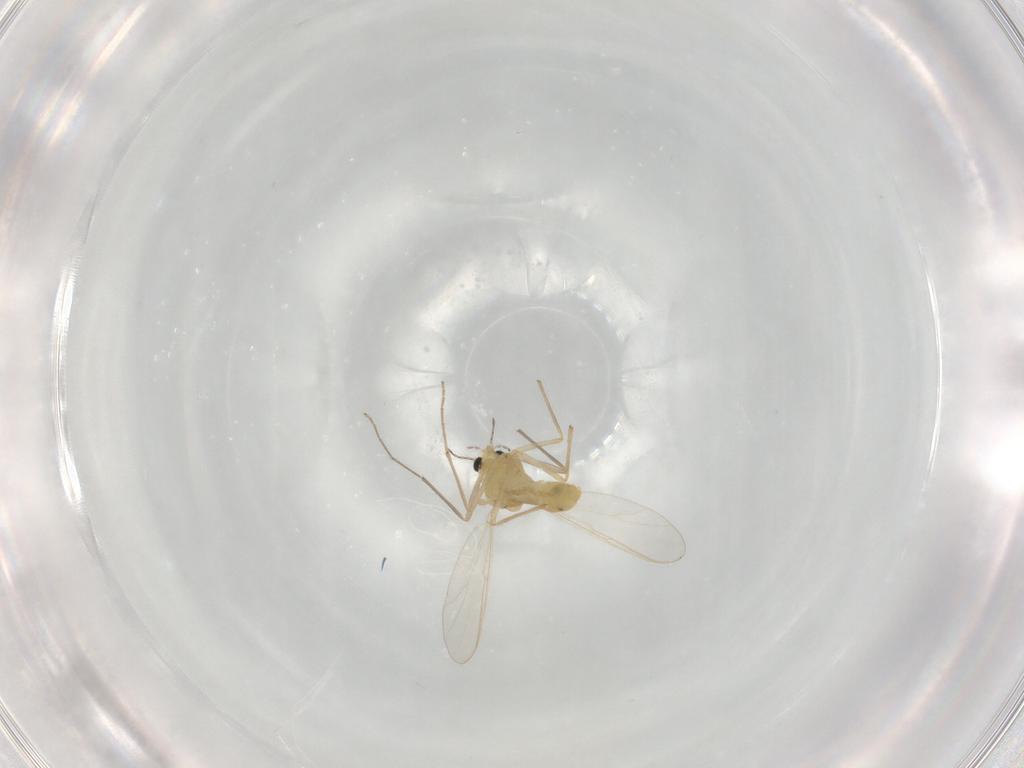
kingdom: Animalia
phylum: Arthropoda
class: Insecta
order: Diptera
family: Chironomidae
